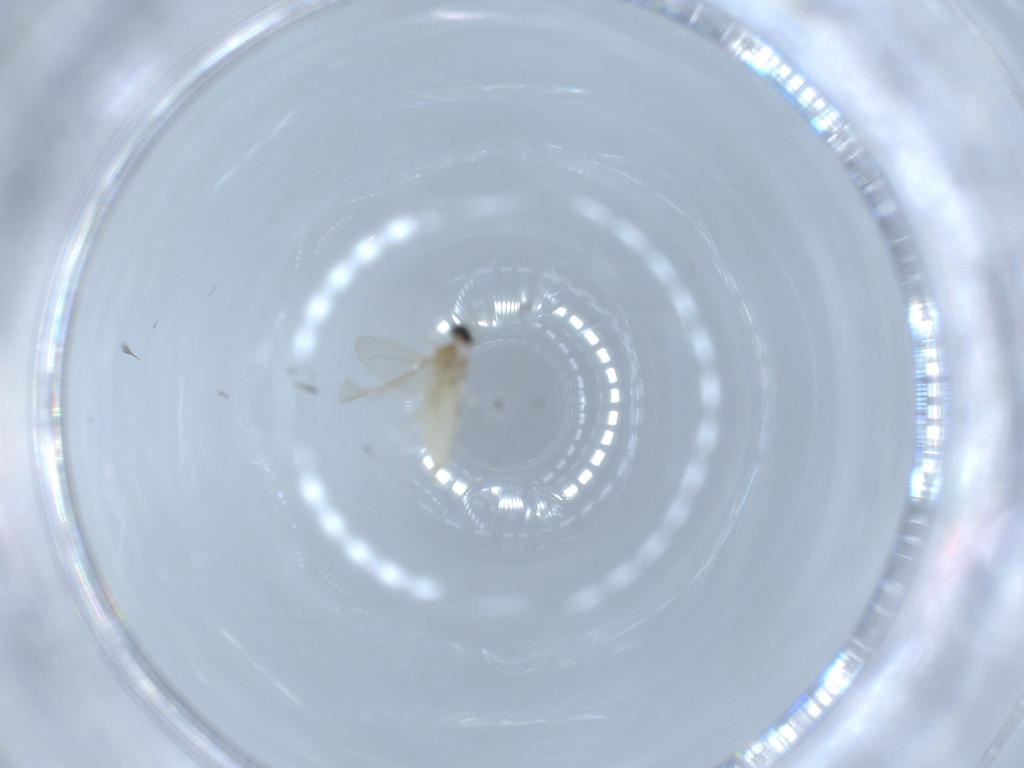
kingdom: Animalia
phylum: Arthropoda
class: Insecta
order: Diptera
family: Cecidomyiidae
